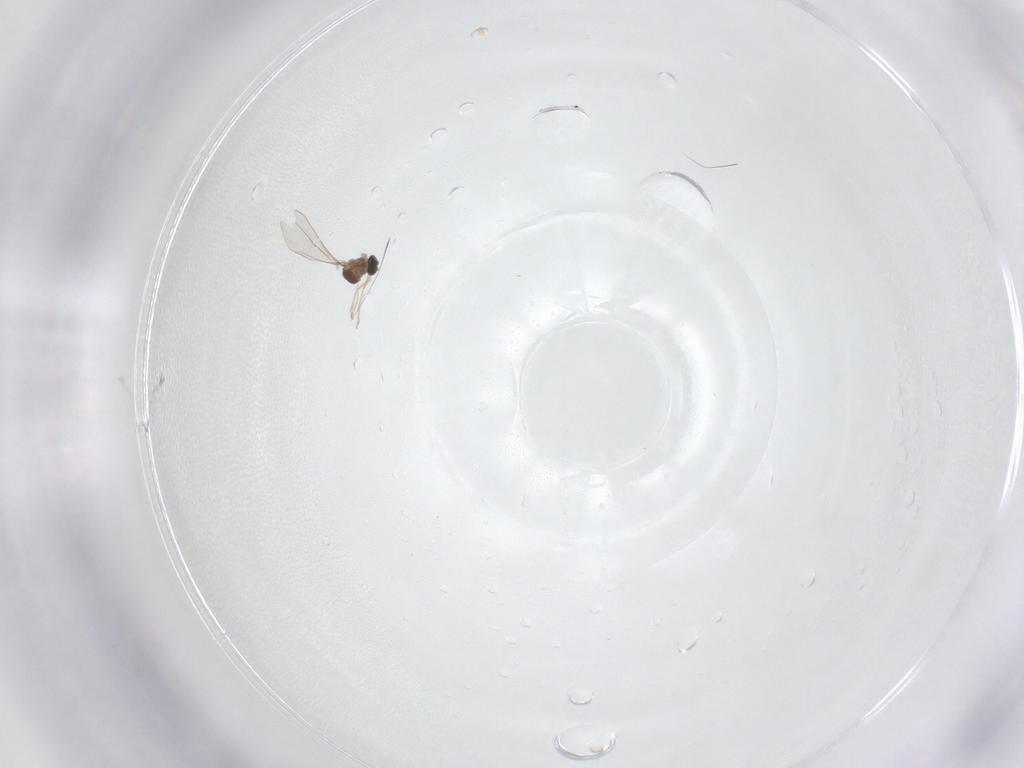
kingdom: Animalia
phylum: Arthropoda
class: Insecta
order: Diptera
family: Cecidomyiidae
